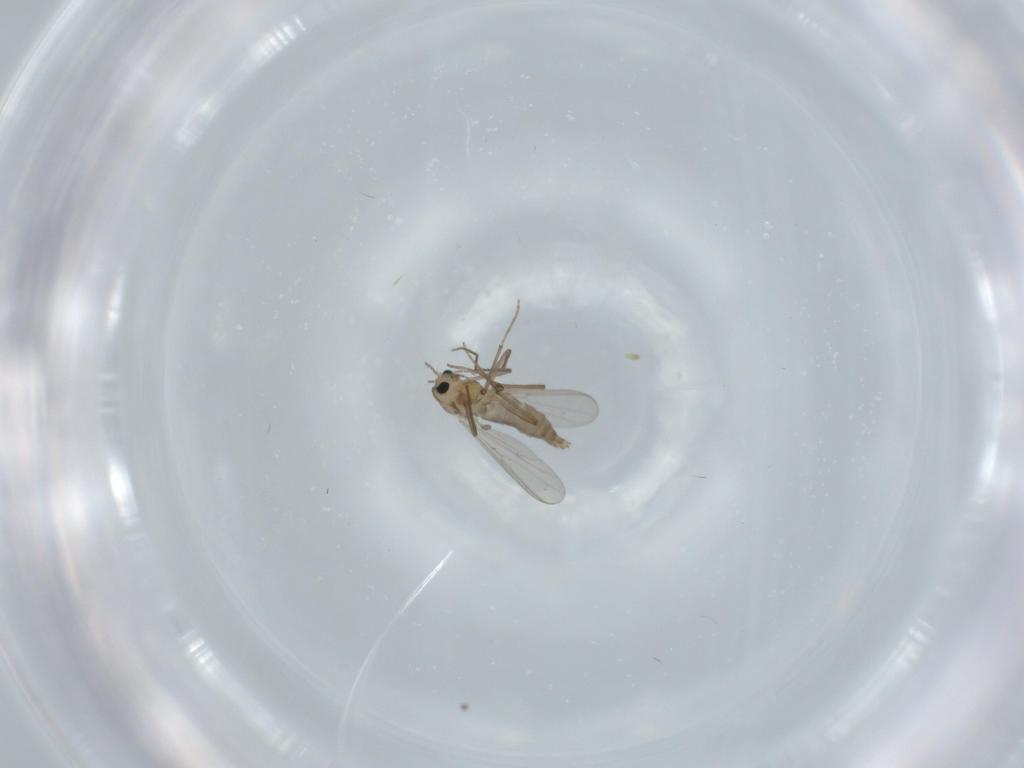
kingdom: Animalia
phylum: Arthropoda
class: Insecta
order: Diptera
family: Chironomidae
